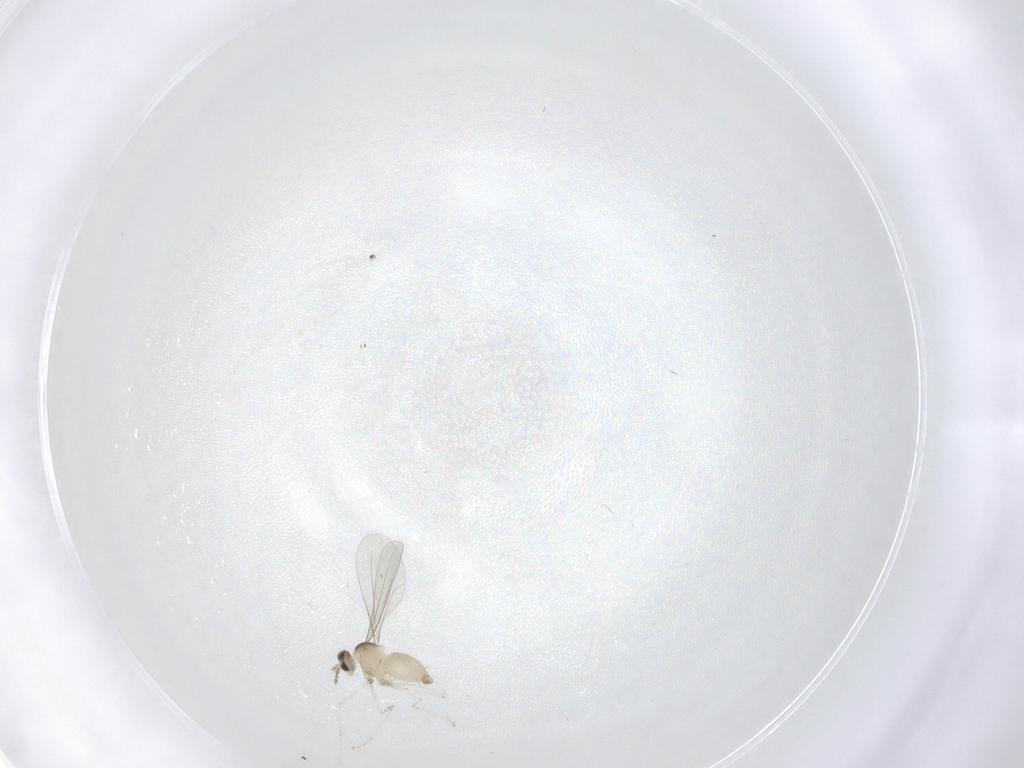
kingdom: Animalia
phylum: Arthropoda
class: Insecta
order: Diptera
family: Cecidomyiidae
